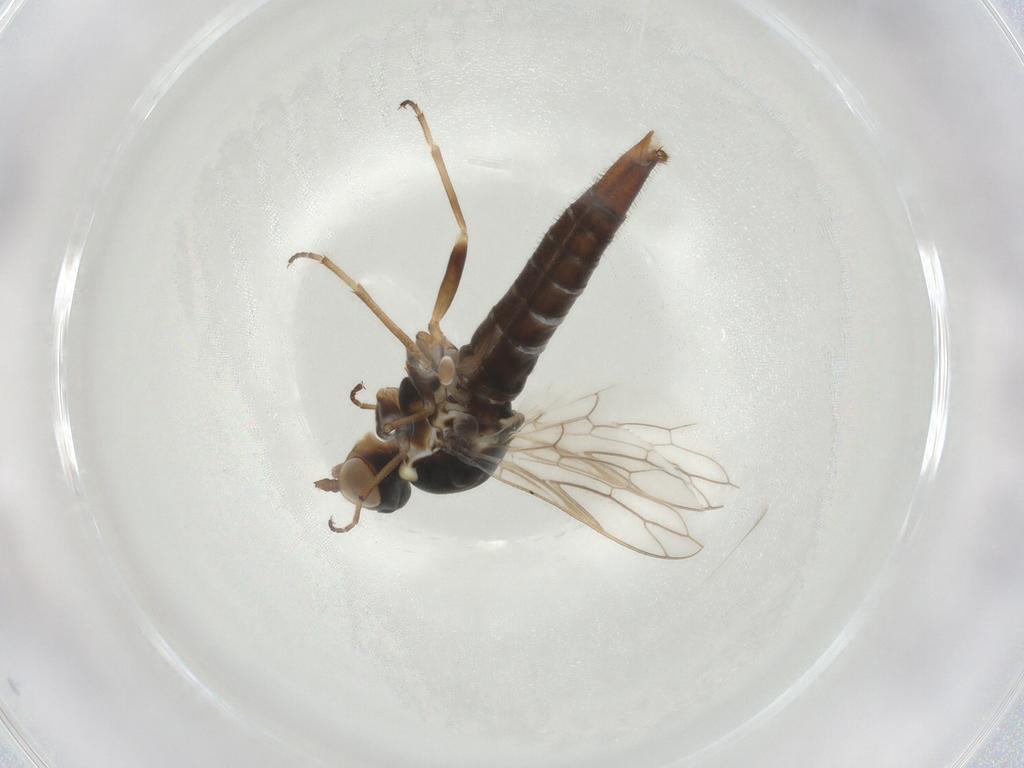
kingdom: Animalia
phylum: Arthropoda
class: Insecta
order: Diptera
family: Scenopinidae
